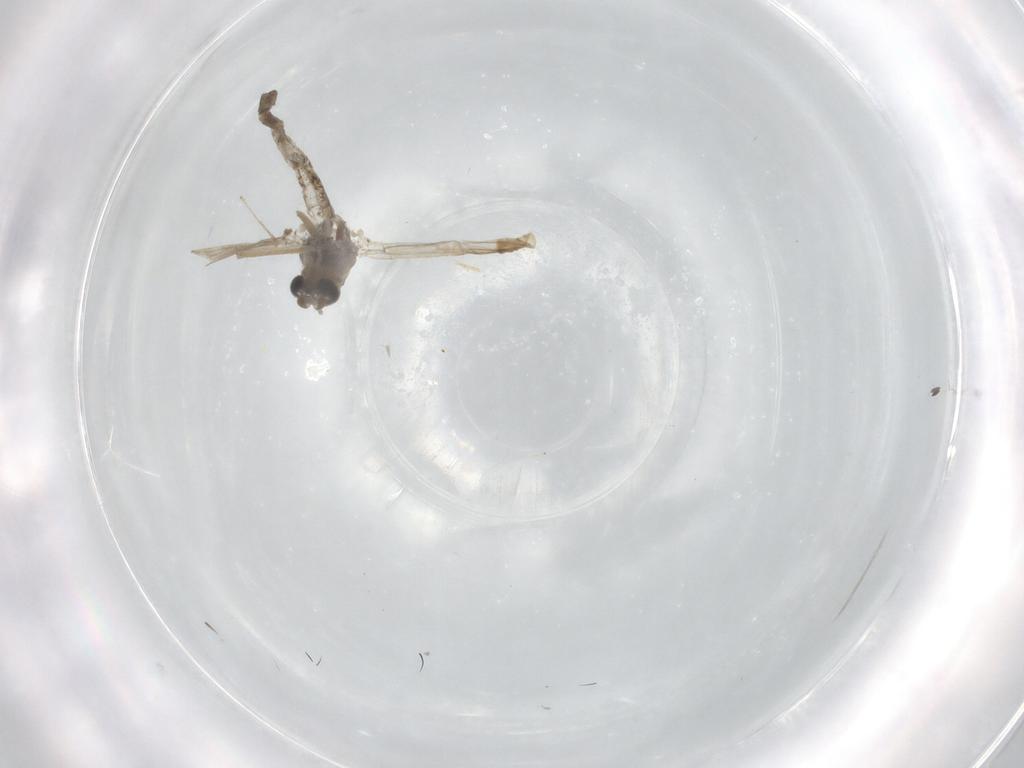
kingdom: Animalia
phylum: Arthropoda
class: Insecta
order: Diptera
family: Cecidomyiidae
